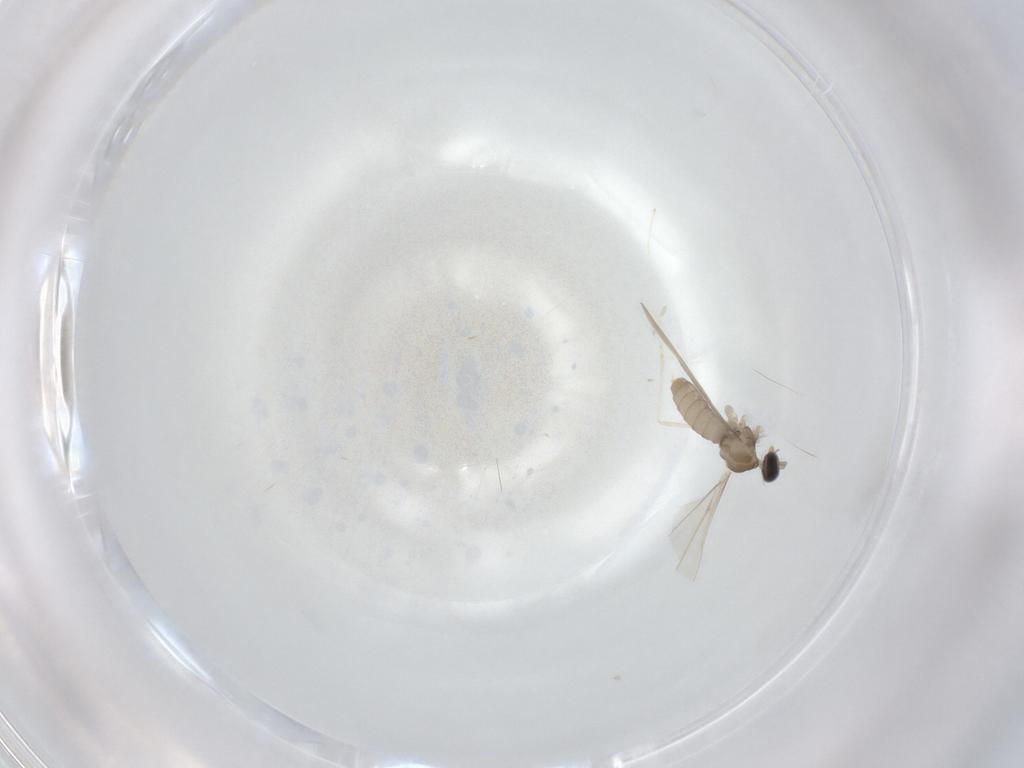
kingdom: Animalia
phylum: Arthropoda
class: Insecta
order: Diptera
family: Cecidomyiidae
